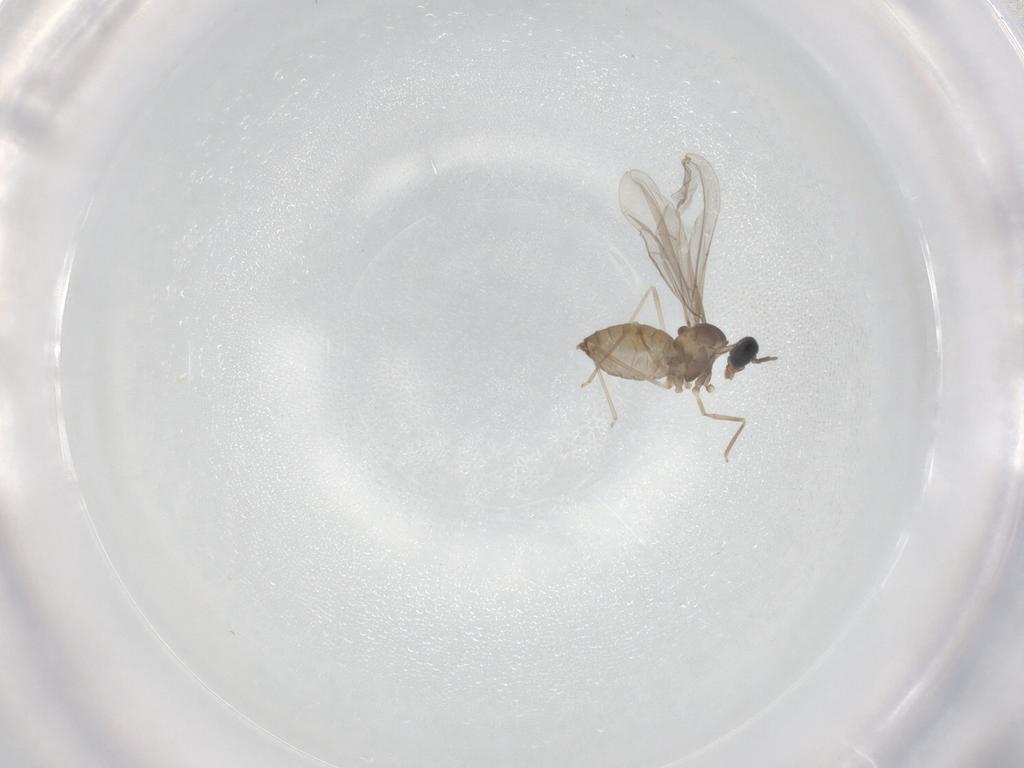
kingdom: Animalia
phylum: Arthropoda
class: Insecta
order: Diptera
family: Cecidomyiidae
